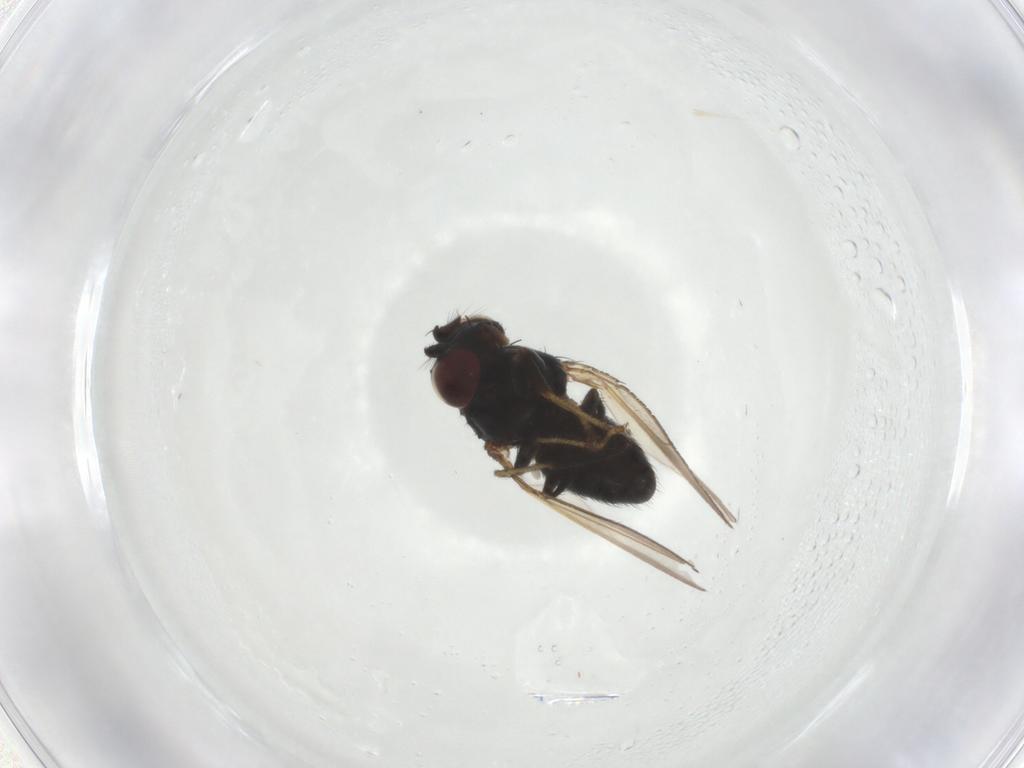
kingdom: Animalia
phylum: Arthropoda
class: Insecta
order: Diptera
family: Ephydridae
